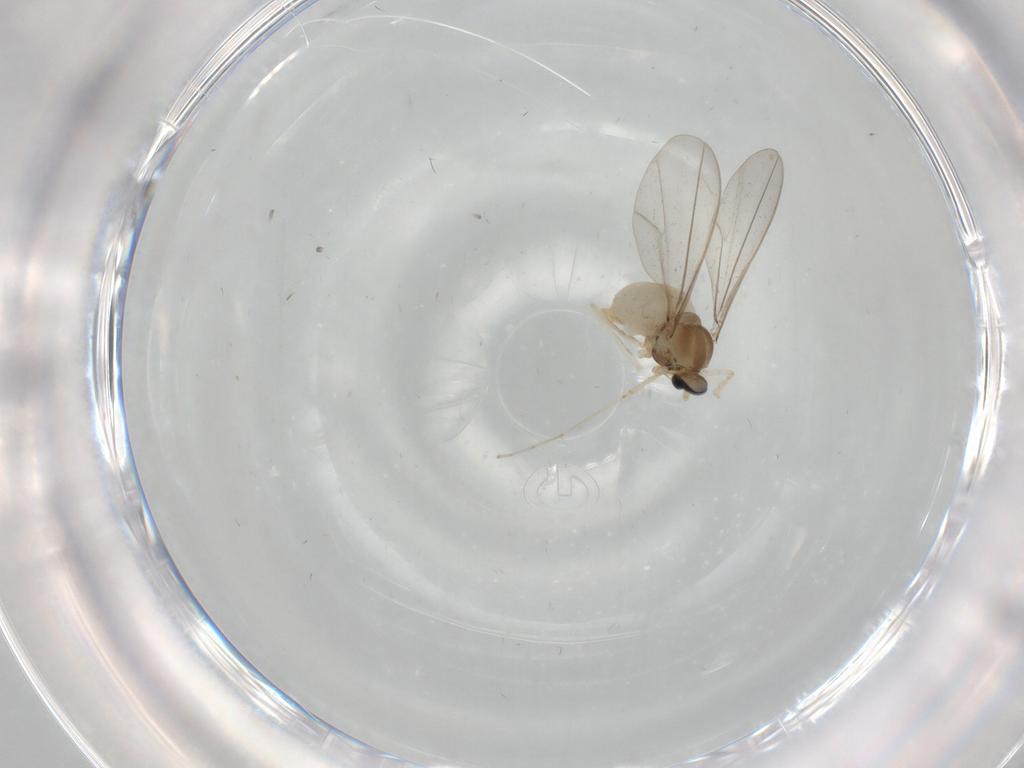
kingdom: Animalia
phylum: Arthropoda
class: Insecta
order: Diptera
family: Cecidomyiidae
